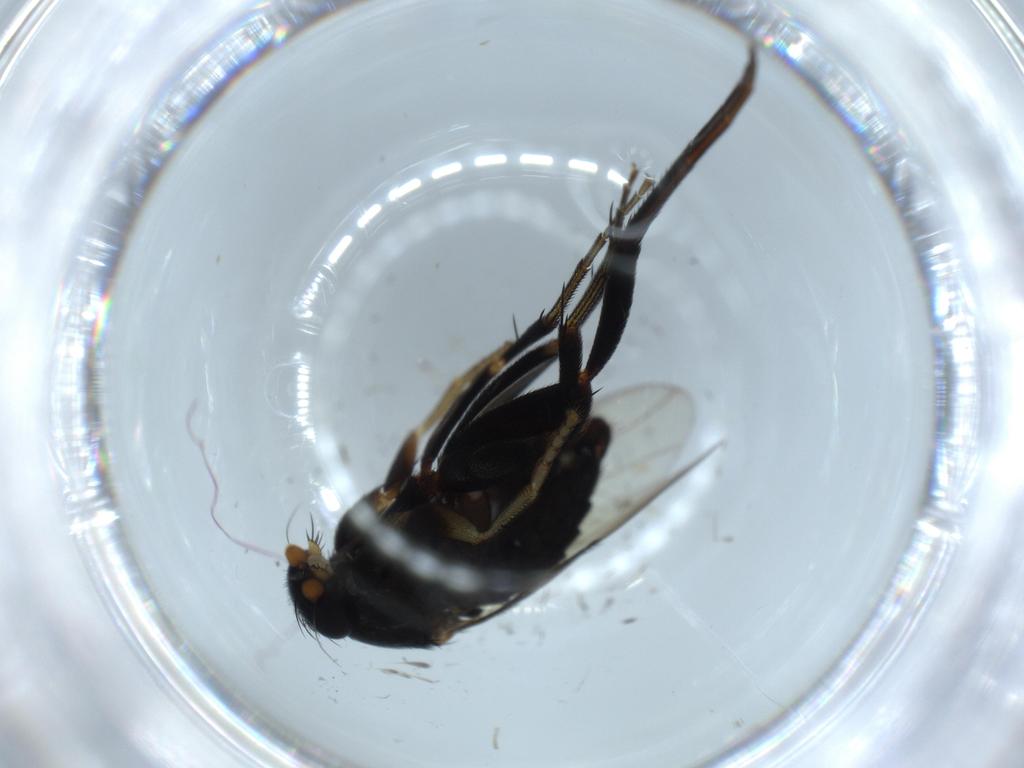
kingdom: Animalia
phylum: Arthropoda
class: Insecta
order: Diptera
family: Phoridae
